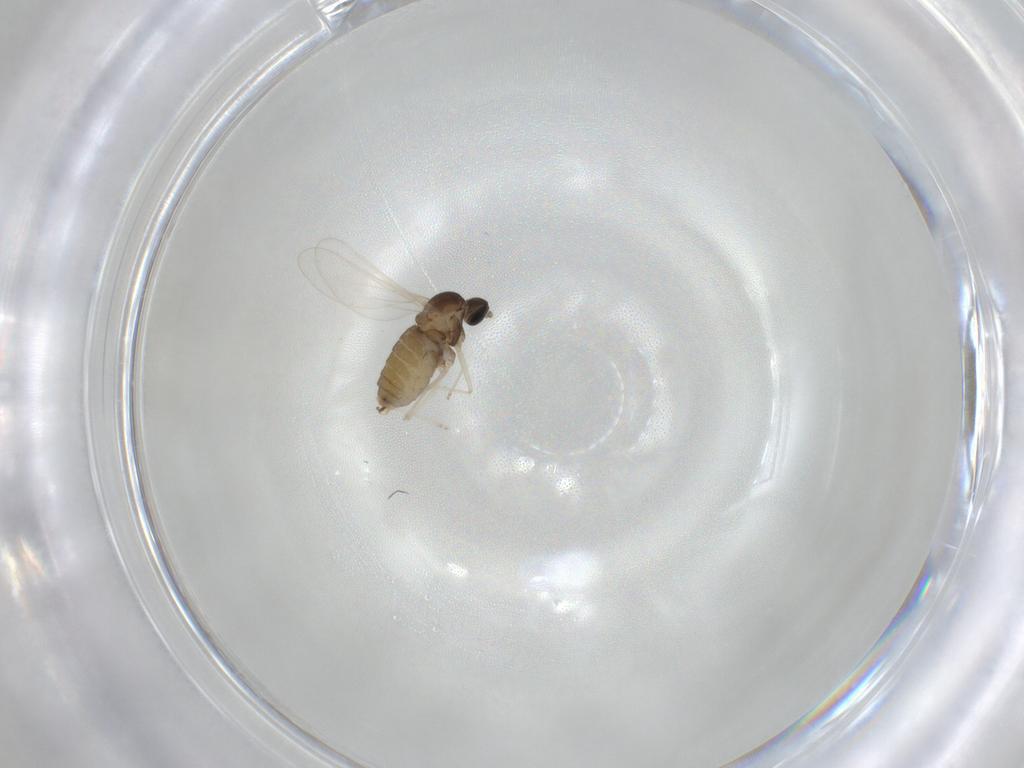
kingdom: Animalia
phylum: Arthropoda
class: Insecta
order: Diptera
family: Cecidomyiidae
